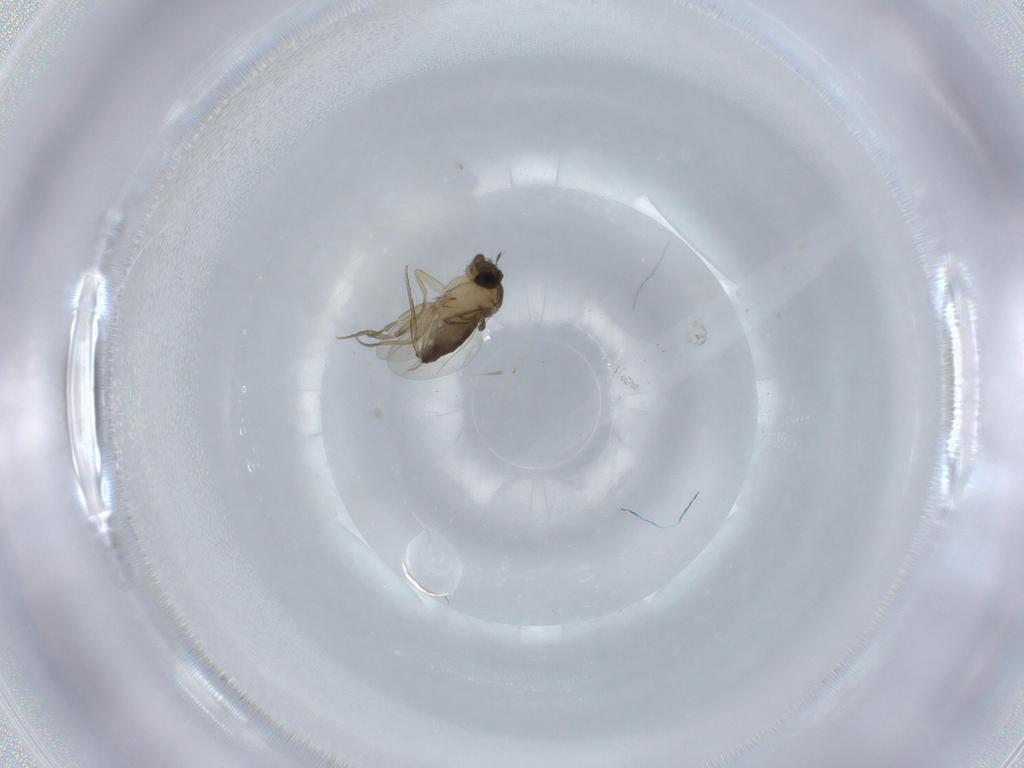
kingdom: Animalia
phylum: Arthropoda
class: Insecta
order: Diptera
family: Phoridae
